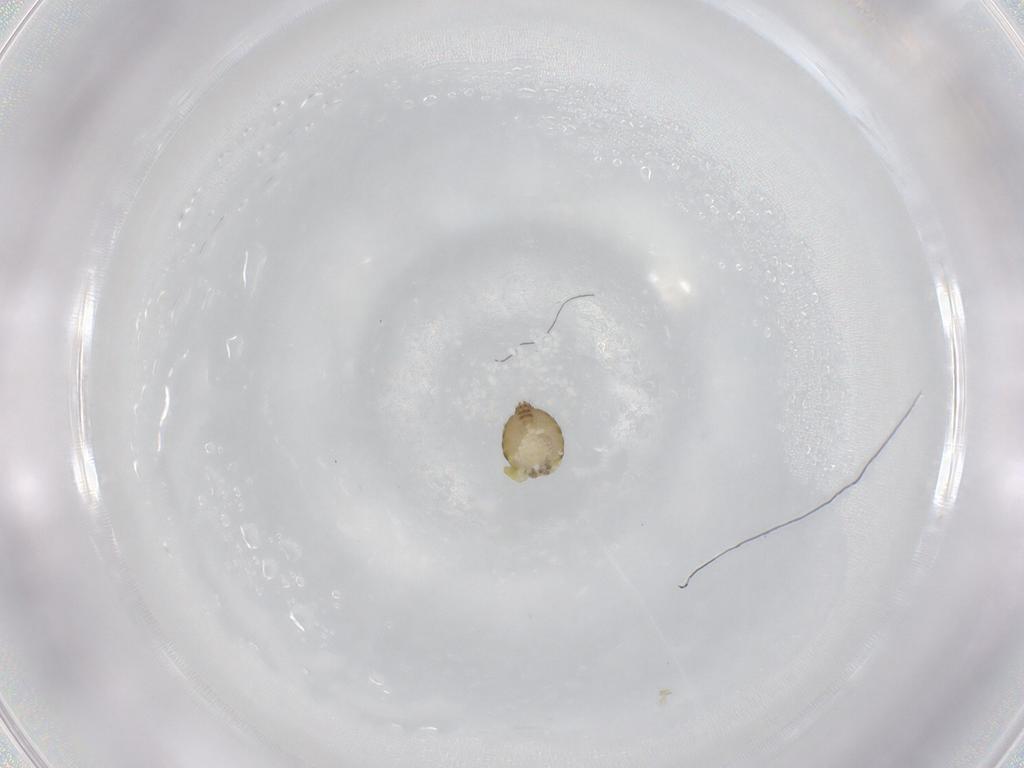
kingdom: Animalia
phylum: Arthropoda
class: Insecta
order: Diptera
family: Ceratopogonidae
